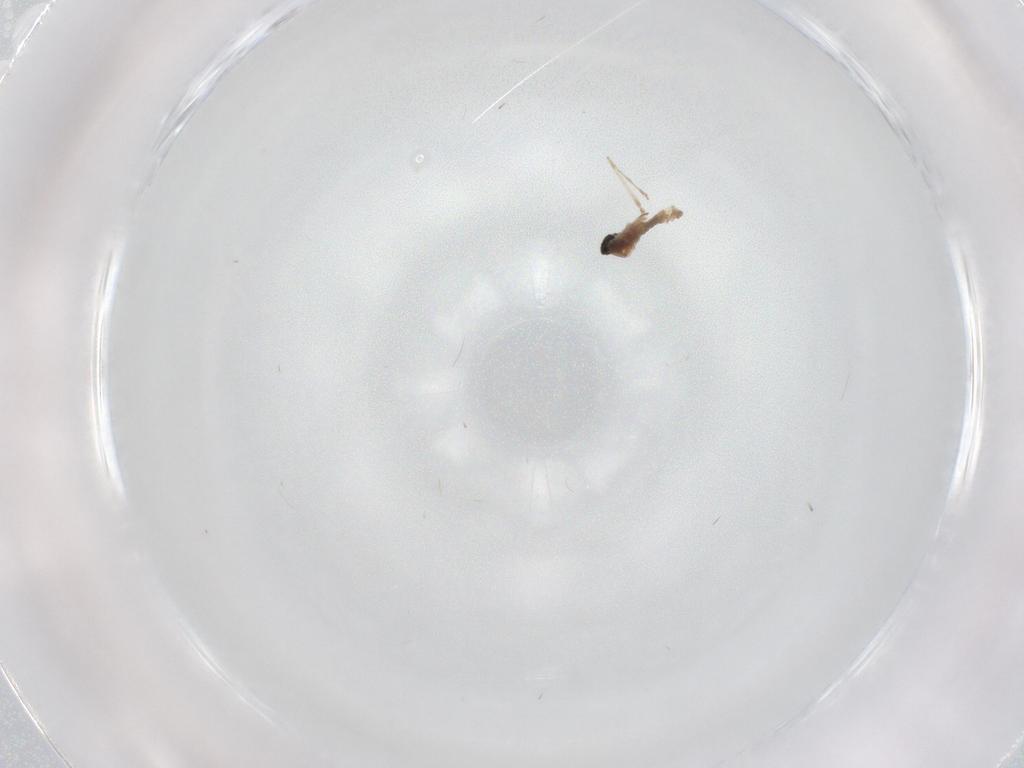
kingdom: Animalia
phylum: Arthropoda
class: Insecta
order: Diptera
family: Cecidomyiidae
